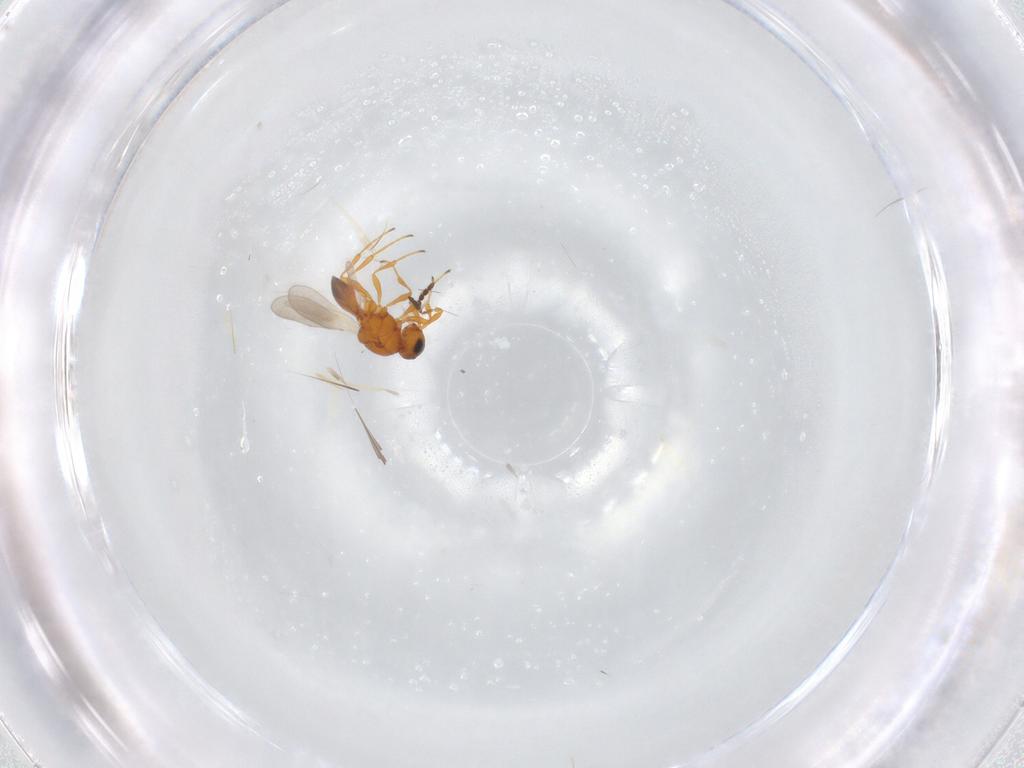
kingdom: Animalia
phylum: Arthropoda
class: Insecta
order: Hymenoptera
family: Platygastridae
